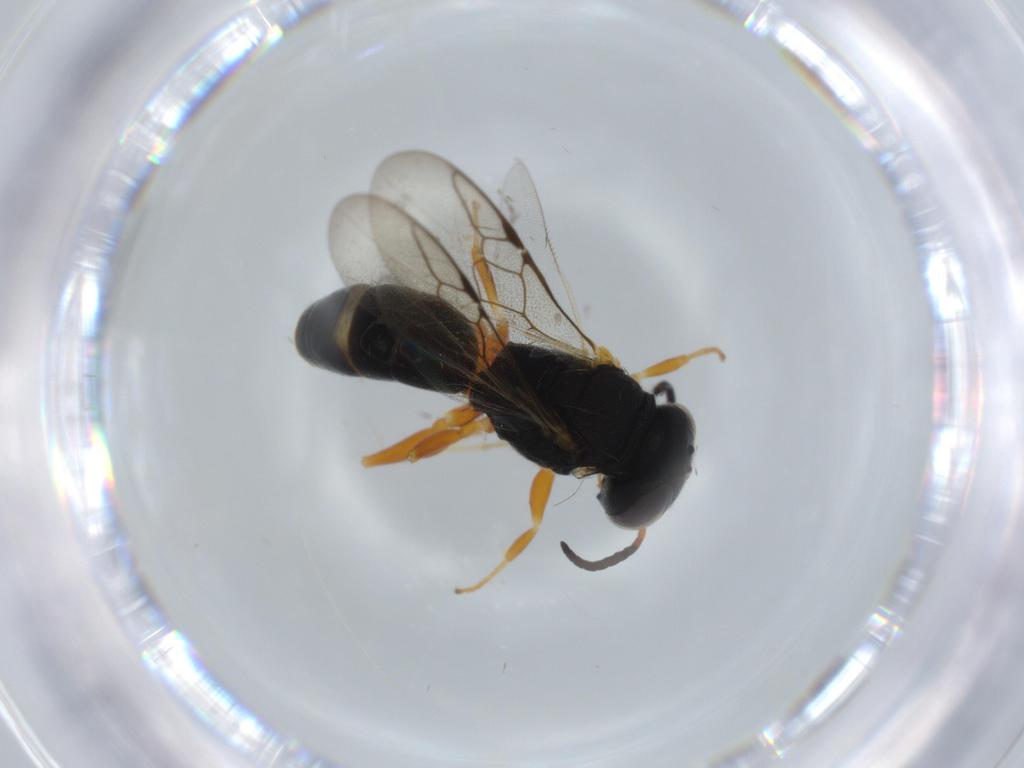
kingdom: Animalia
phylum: Arthropoda
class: Insecta
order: Hymenoptera
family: Crabronidae
